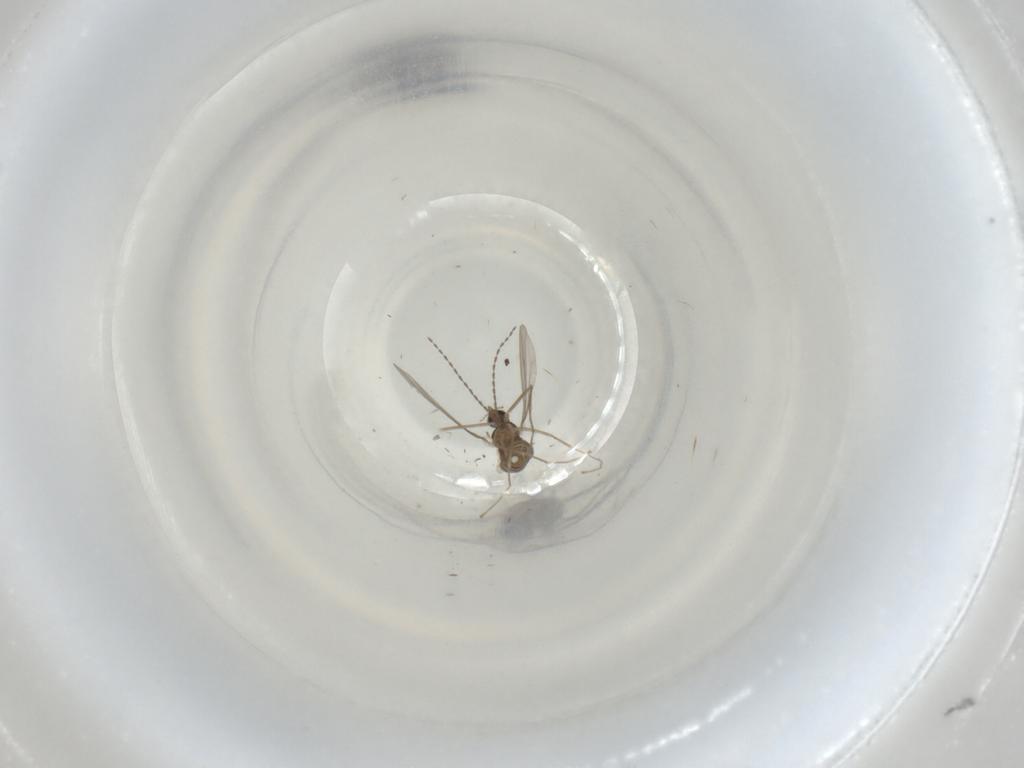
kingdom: Animalia
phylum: Arthropoda
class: Insecta
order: Diptera
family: Cecidomyiidae
